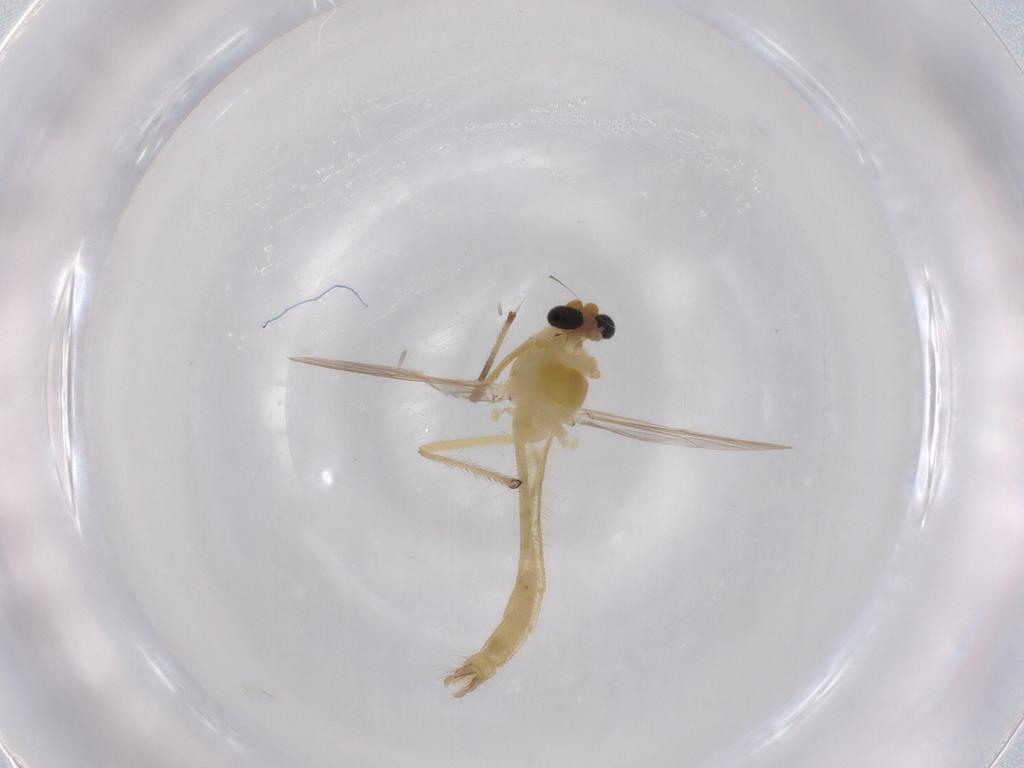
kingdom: Animalia
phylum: Arthropoda
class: Insecta
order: Diptera
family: Chironomidae
